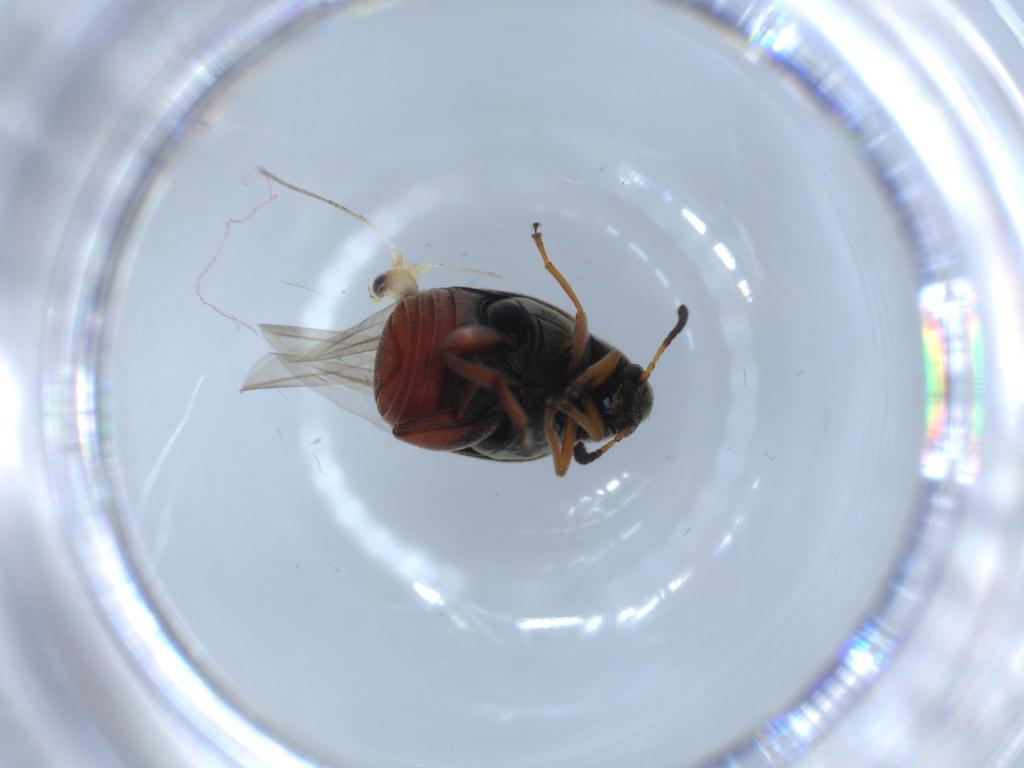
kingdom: Animalia
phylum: Arthropoda
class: Insecta
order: Lepidoptera
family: Argyresthiidae
